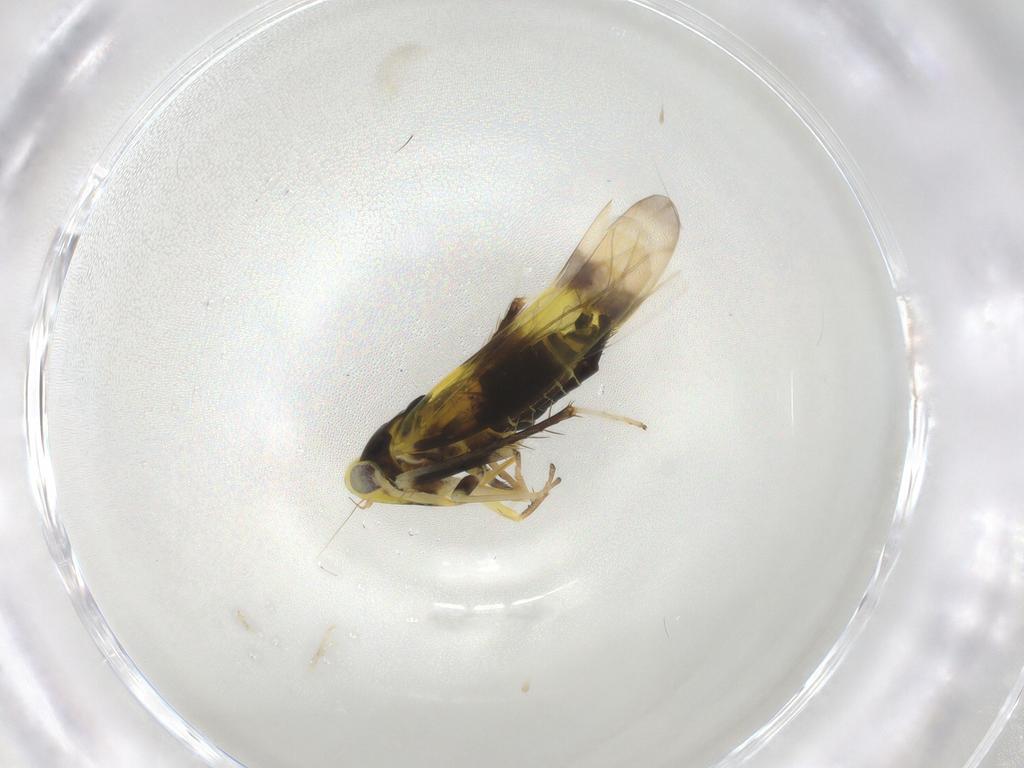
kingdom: Animalia
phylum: Arthropoda
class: Insecta
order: Hemiptera
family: Cicadellidae
